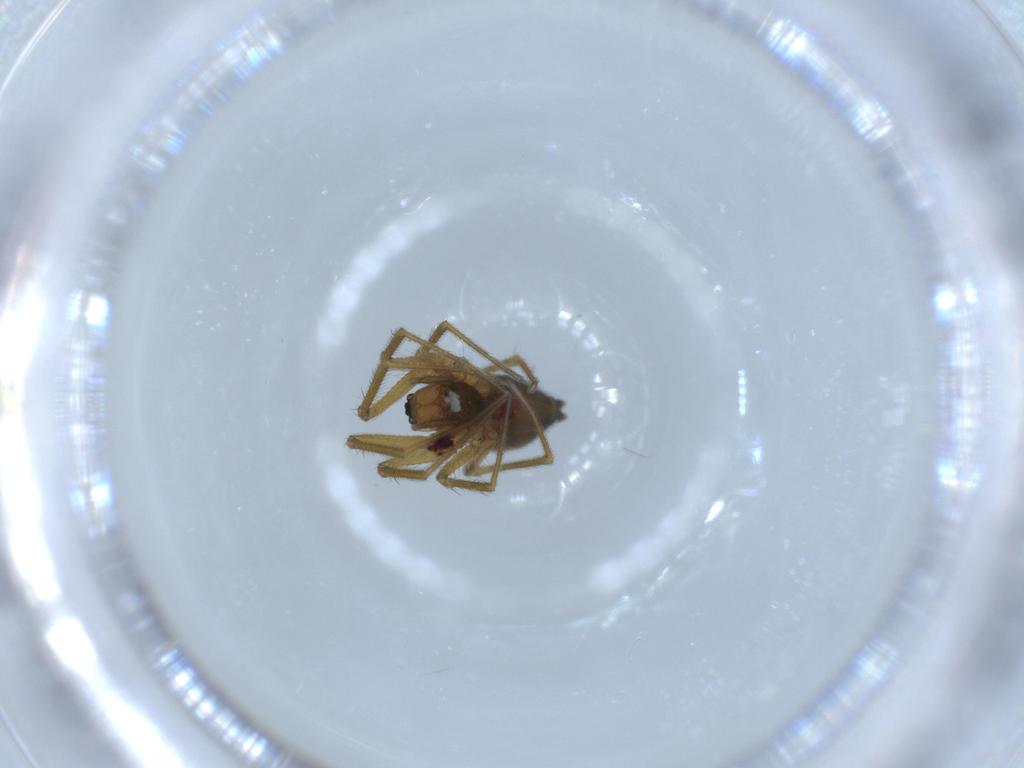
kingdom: Animalia
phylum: Arthropoda
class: Arachnida
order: Araneae
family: Linyphiidae
